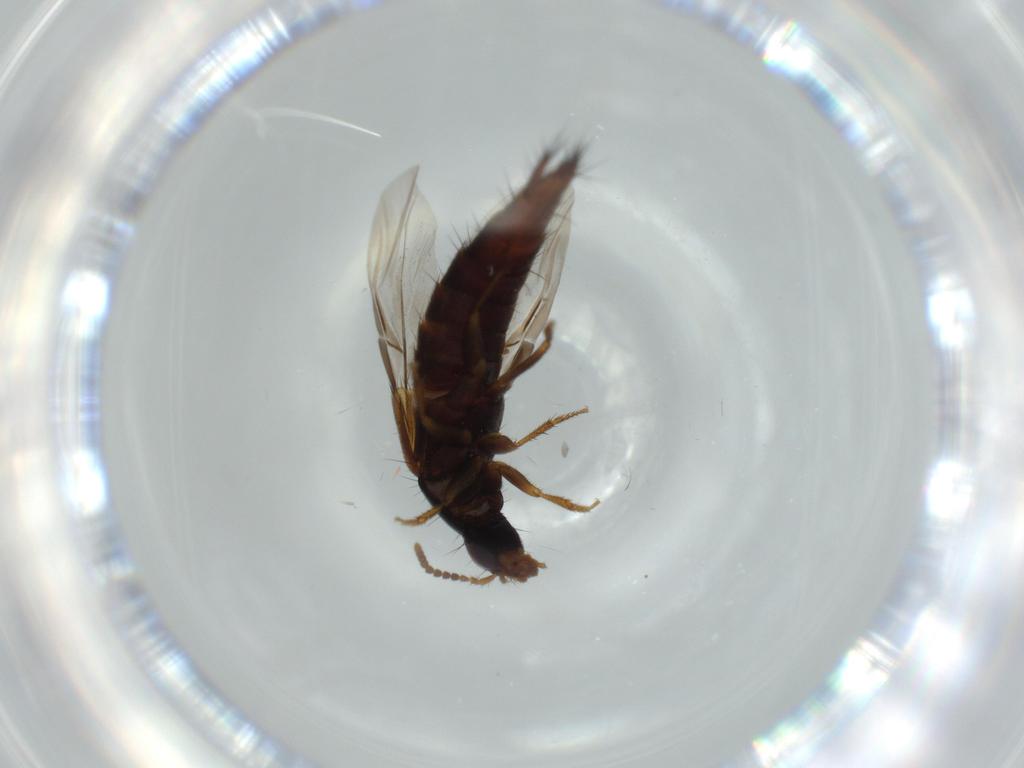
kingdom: Animalia
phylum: Arthropoda
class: Insecta
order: Coleoptera
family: Staphylinidae
